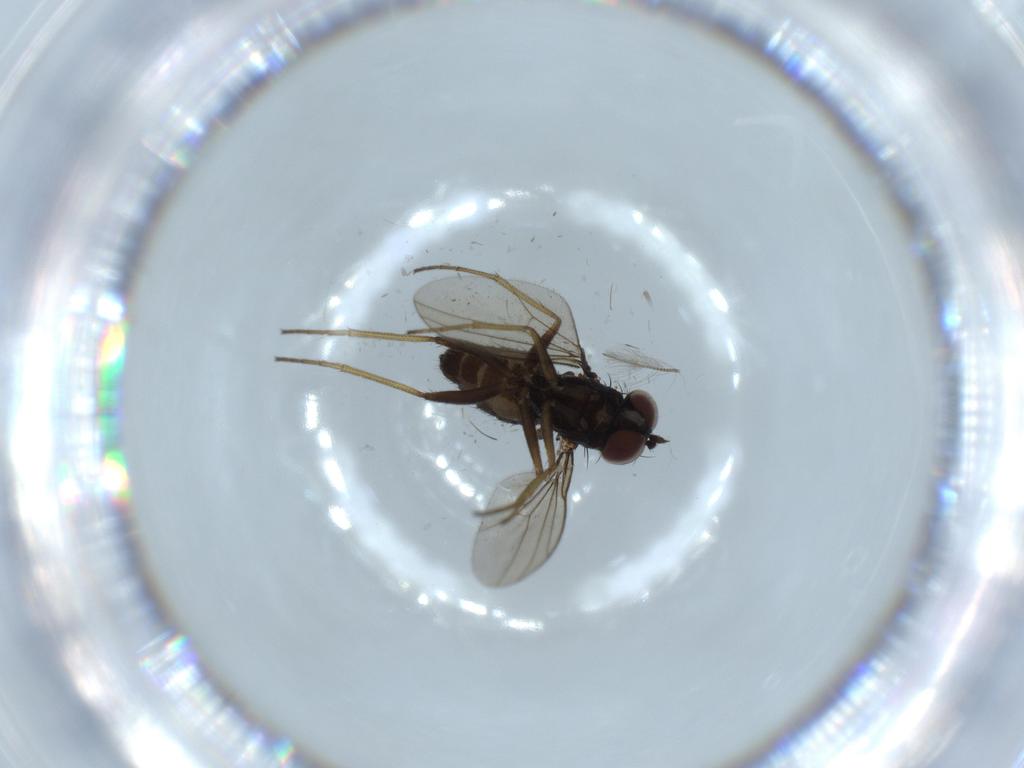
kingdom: Animalia
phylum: Arthropoda
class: Insecta
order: Diptera
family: Dolichopodidae
